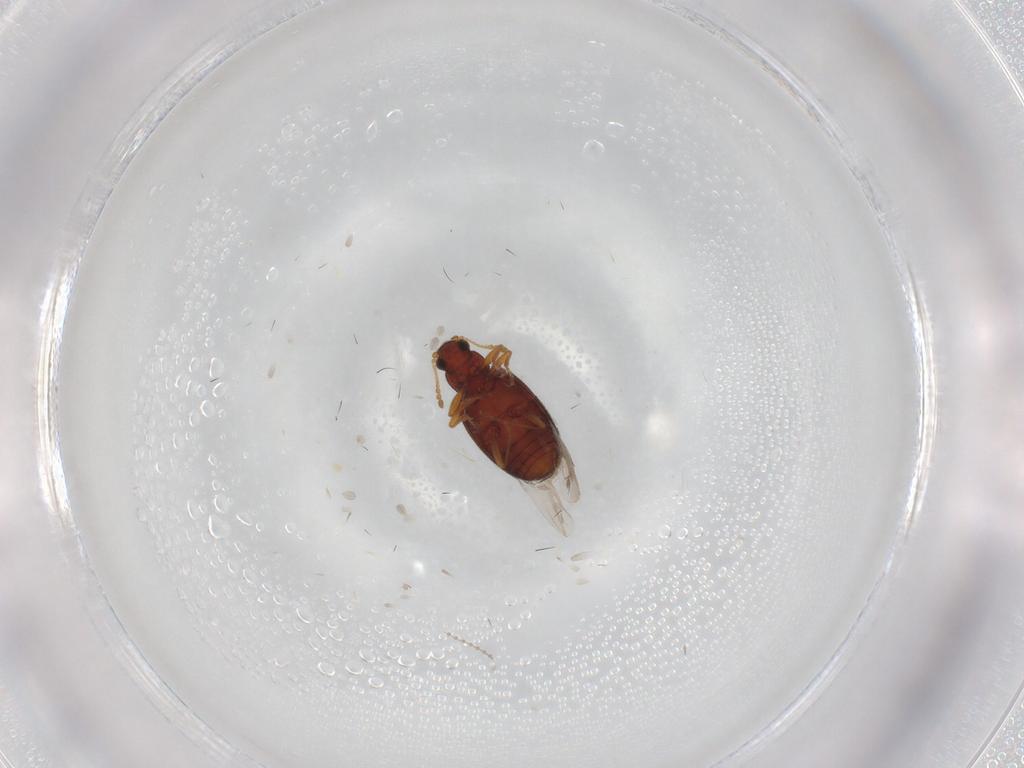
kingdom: Animalia
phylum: Arthropoda
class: Insecta
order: Coleoptera
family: Latridiidae
